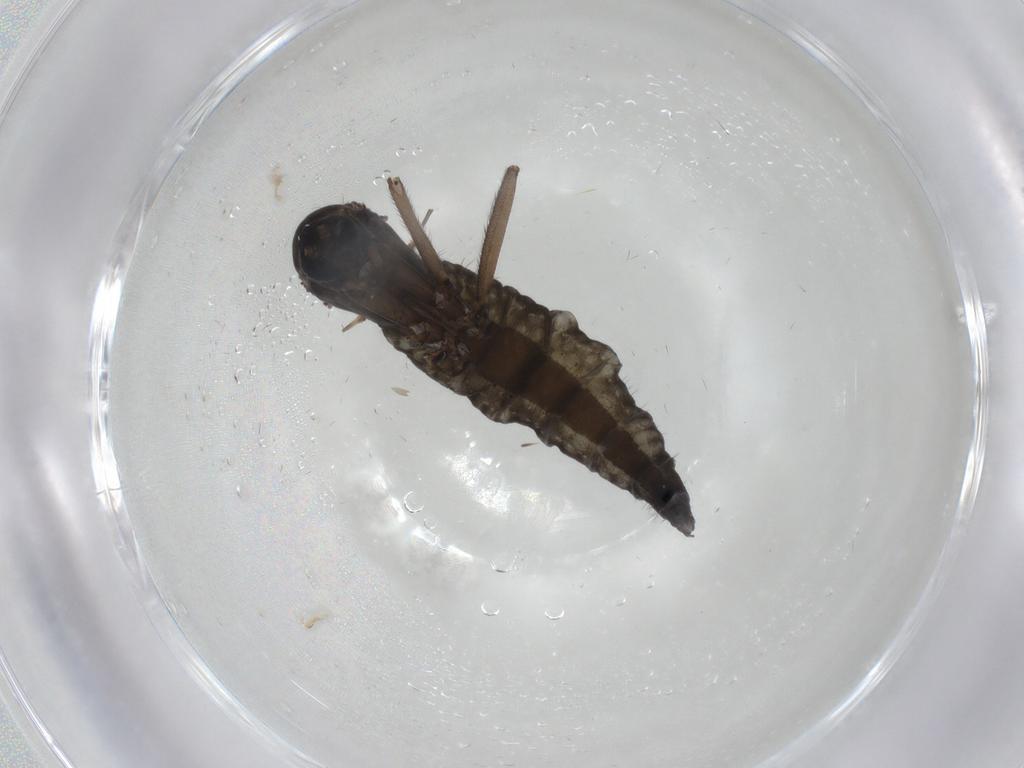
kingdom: Animalia
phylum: Arthropoda
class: Insecta
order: Diptera
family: Sciaridae
